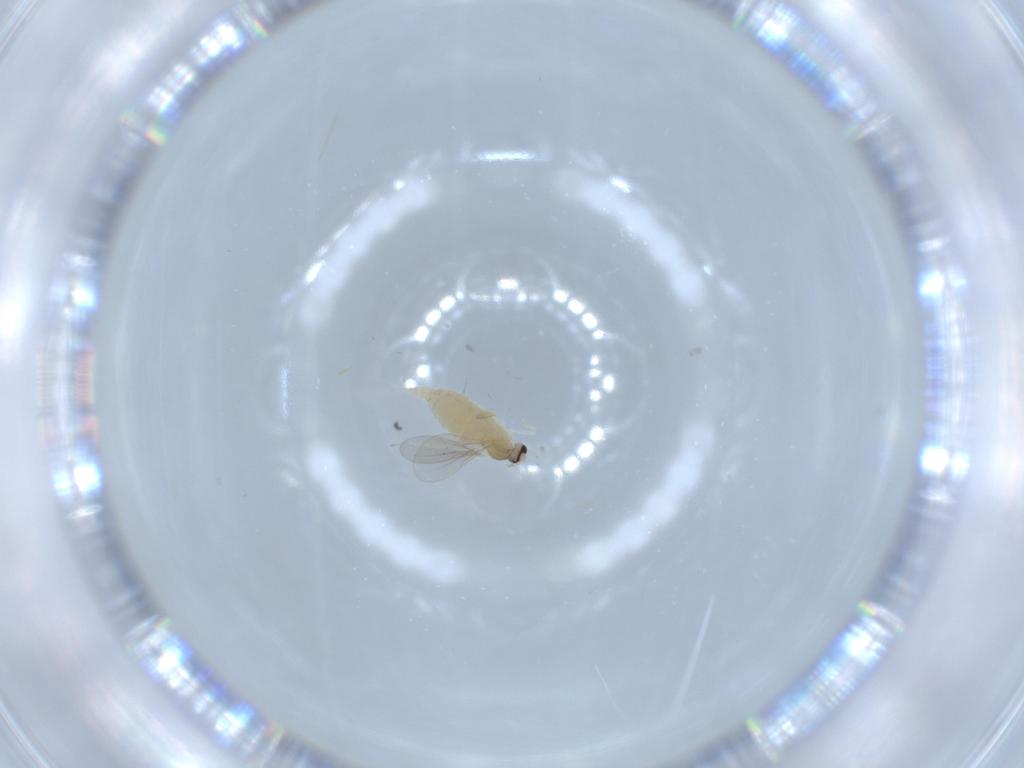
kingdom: Animalia
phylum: Arthropoda
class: Insecta
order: Diptera
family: Cecidomyiidae
